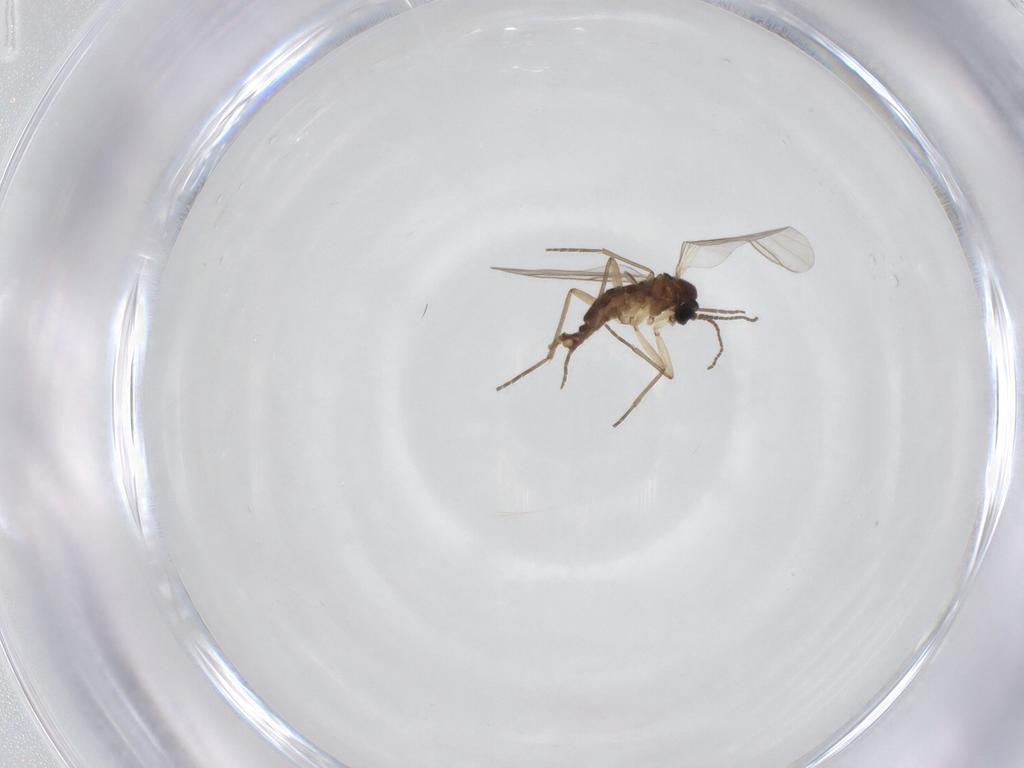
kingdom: Animalia
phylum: Arthropoda
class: Insecta
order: Diptera
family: Sciaridae
